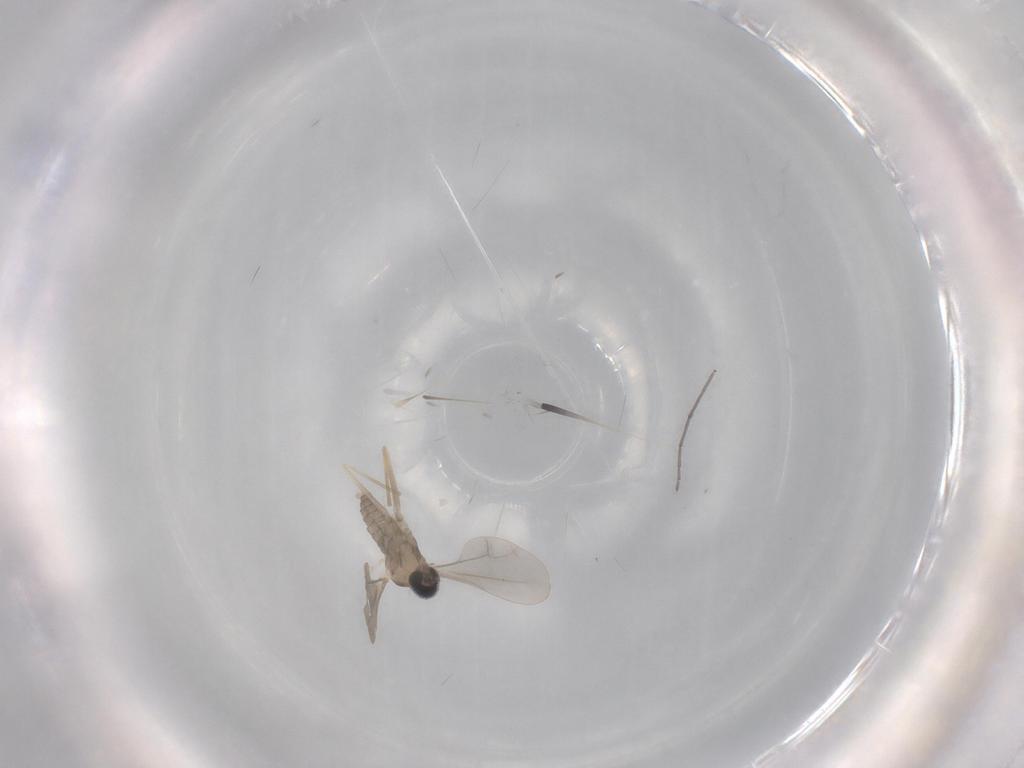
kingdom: Animalia
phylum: Arthropoda
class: Insecta
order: Diptera
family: Cecidomyiidae
